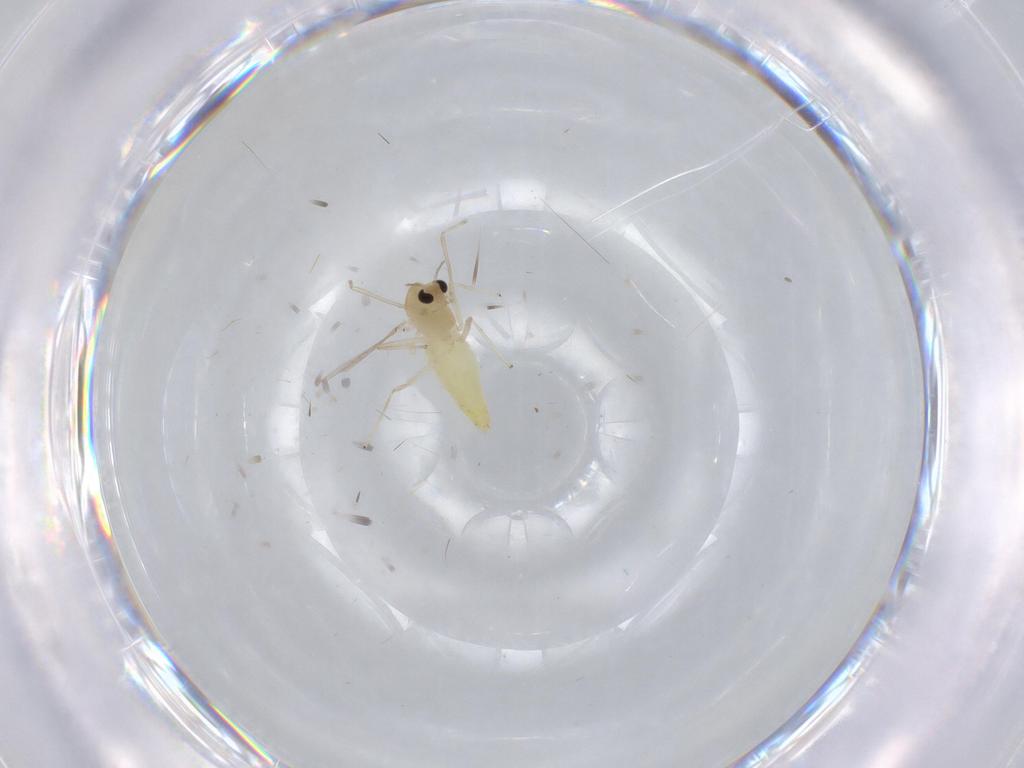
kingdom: Animalia
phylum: Arthropoda
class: Insecta
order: Diptera
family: Chironomidae
